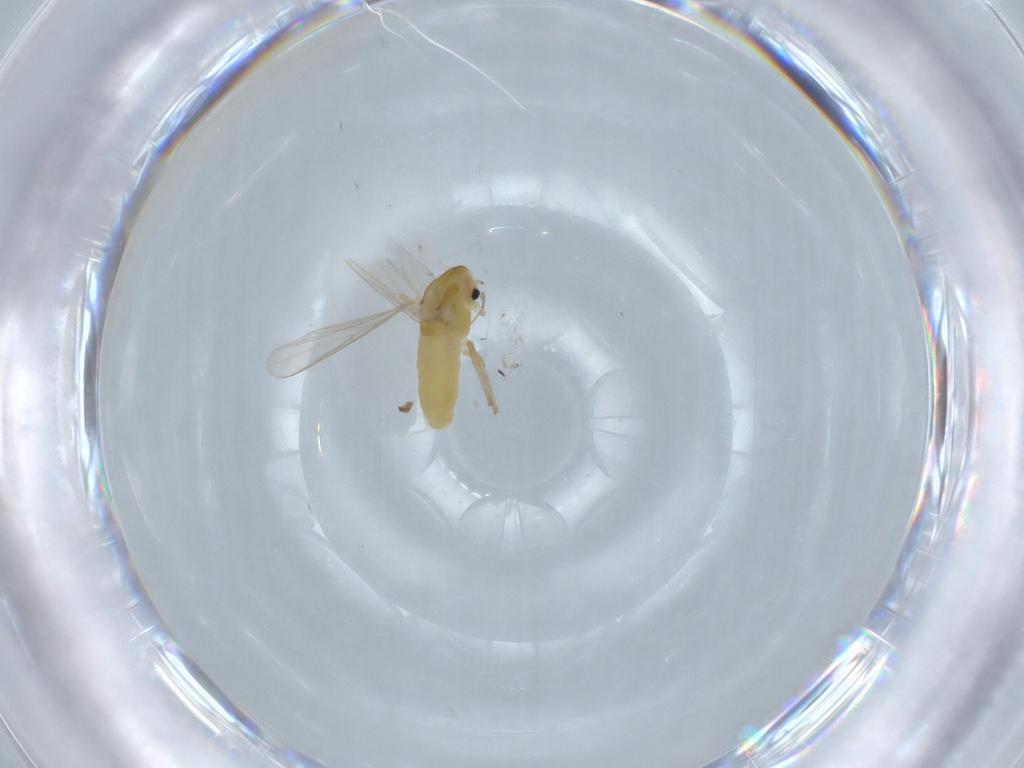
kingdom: Animalia
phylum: Arthropoda
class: Insecta
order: Diptera
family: Chironomidae
